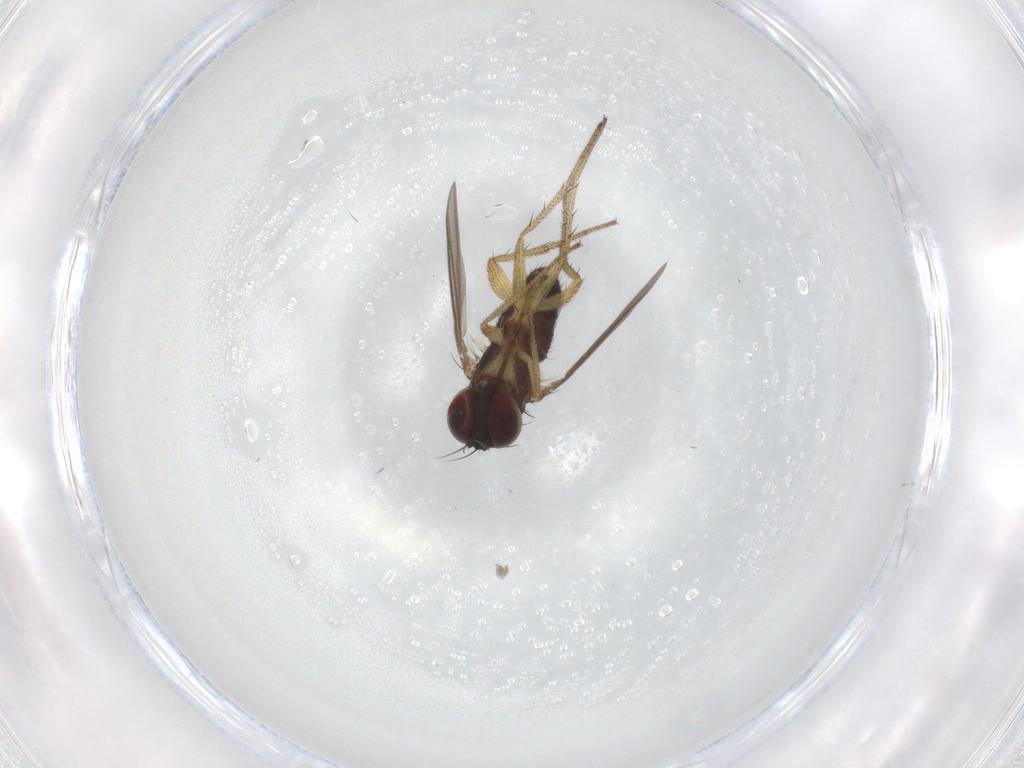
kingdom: Animalia
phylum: Arthropoda
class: Insecta
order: Diptera
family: Dolichopodidae
